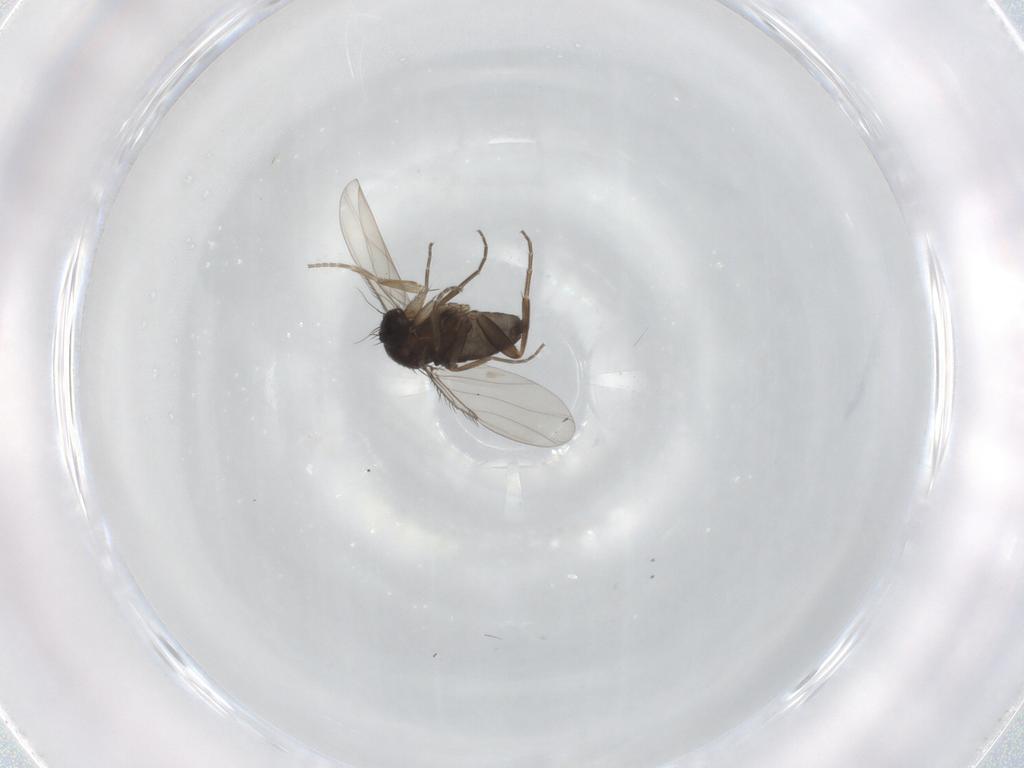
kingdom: Animalia
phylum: Arthropoda
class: Insecta
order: Diptera
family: Phoridae
